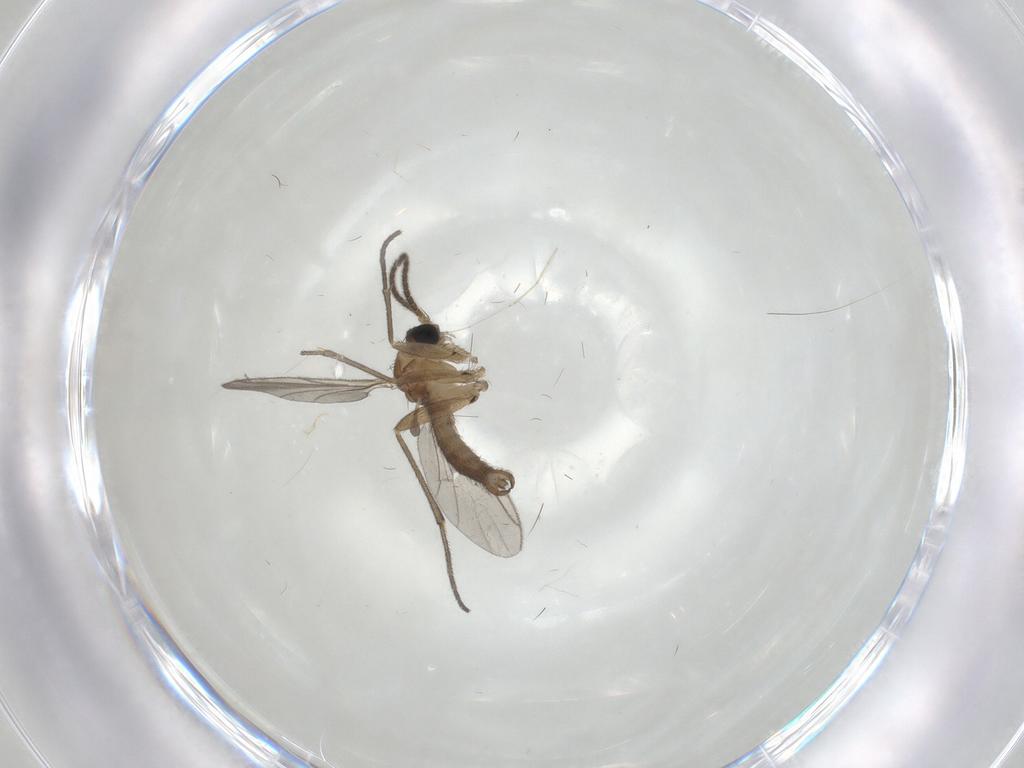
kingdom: Animalia
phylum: Arthropoda
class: Insecta
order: Diptera
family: Sciaridae
